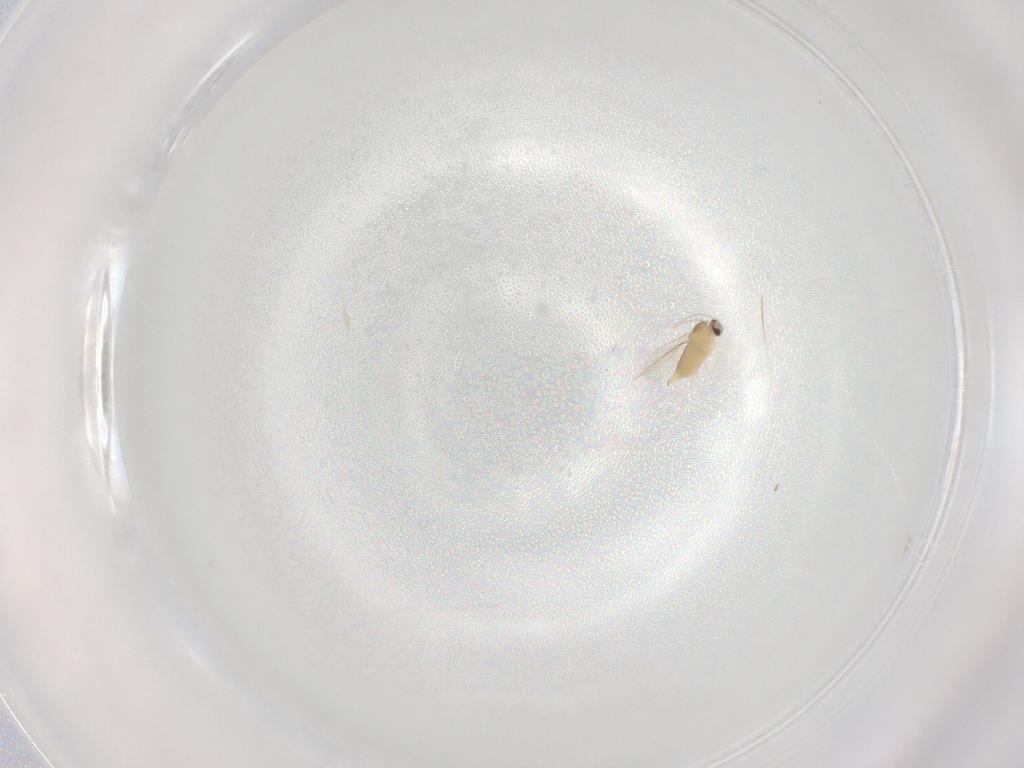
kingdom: Animalia
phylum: Arthropoda
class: Insecta
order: Diptera
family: Cecidomyiidae
